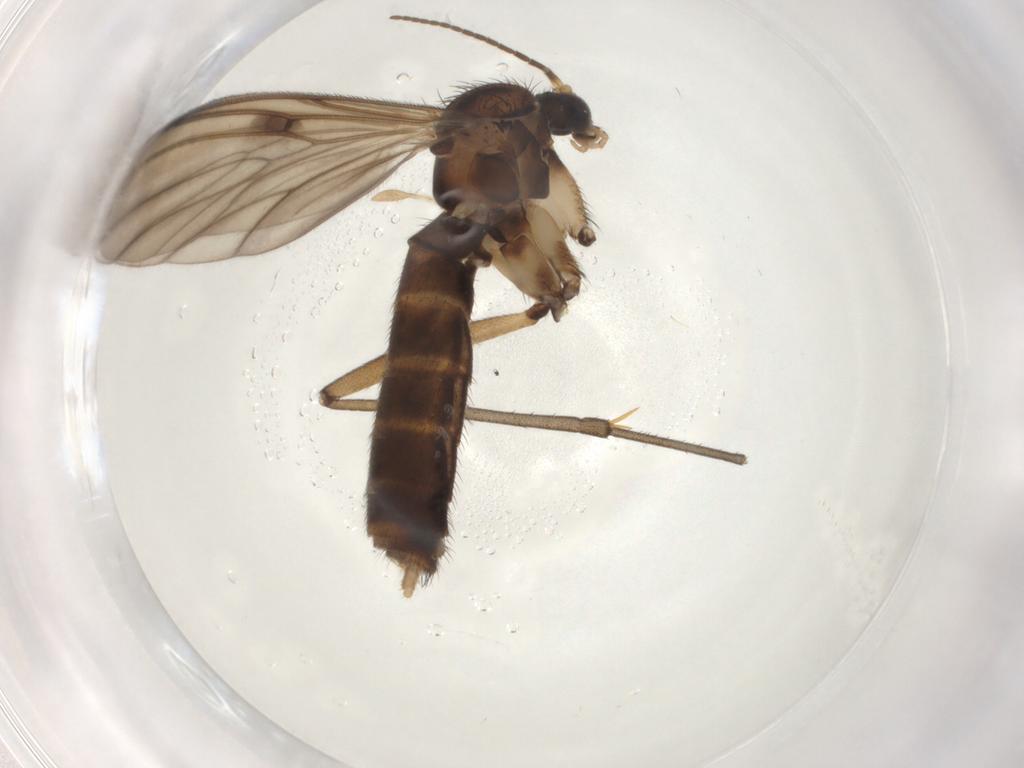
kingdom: Animalia
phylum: Arthropoda
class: Insecta
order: Diptera
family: Mycetophilidae
